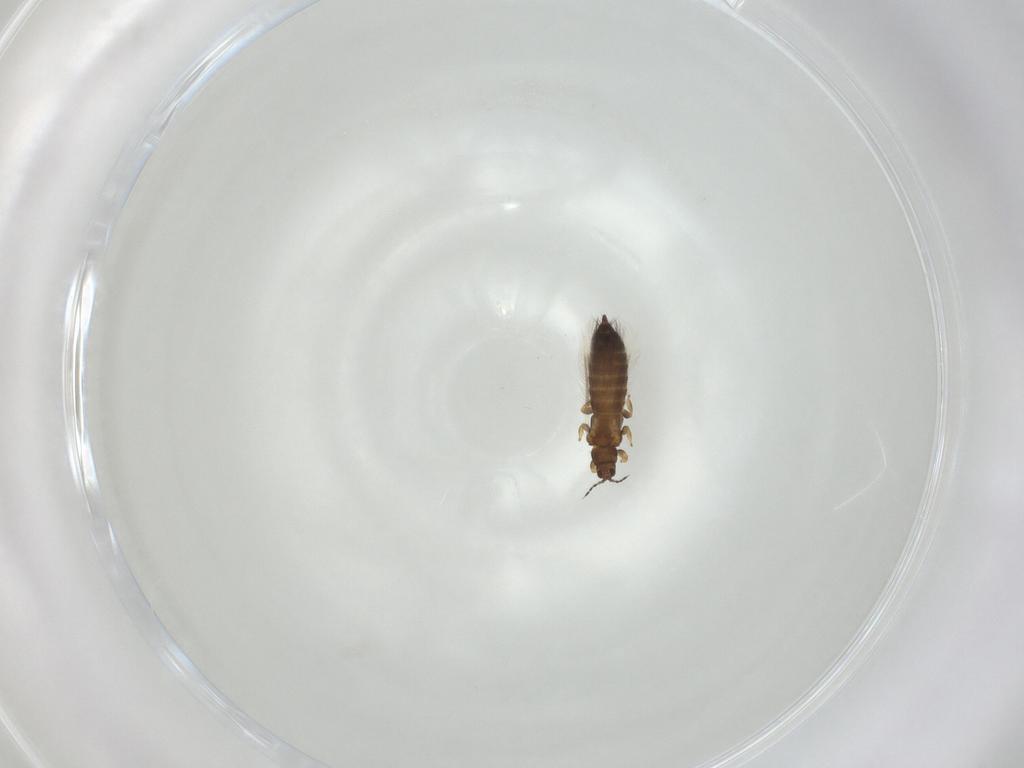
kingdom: Animalia
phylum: Arthropoda
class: Insecta
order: Thysanoptera
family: Thripidae
